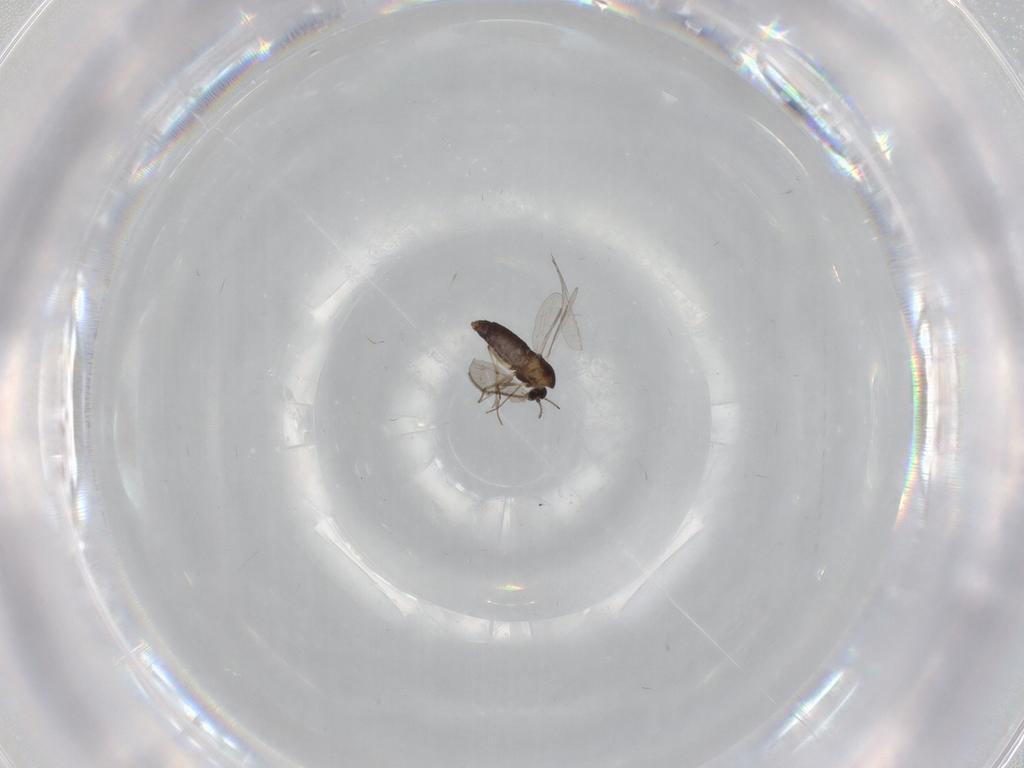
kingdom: Animalia
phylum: Arthropoda
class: Insecta
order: Diptera
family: Chironomidae
